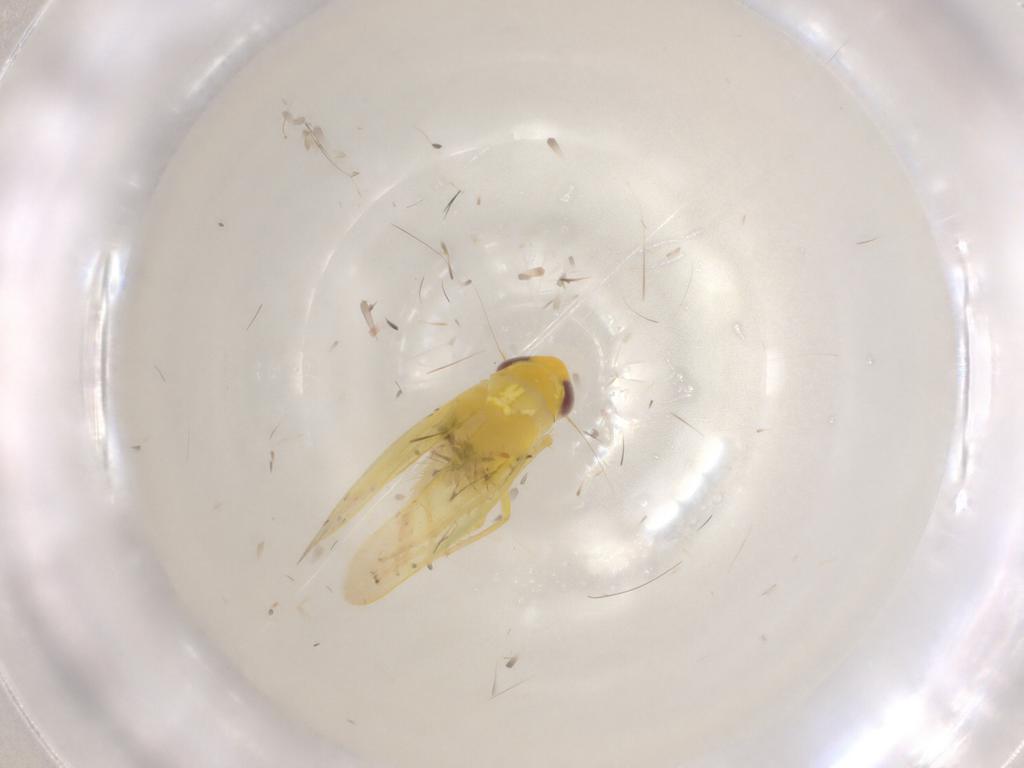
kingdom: Animalia
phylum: Arthropoda
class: Insecta
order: Hemiptera
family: Cicadellidae
